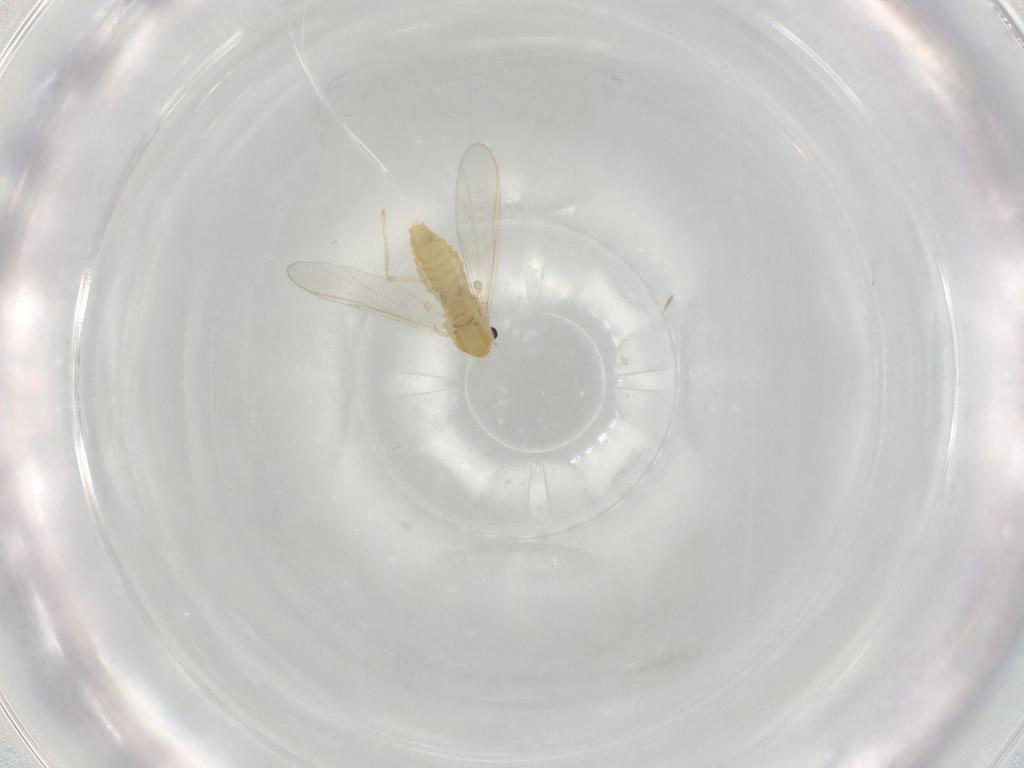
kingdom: Animalia
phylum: Arthropoda
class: Insecta
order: Diptera
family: Chironomidae
